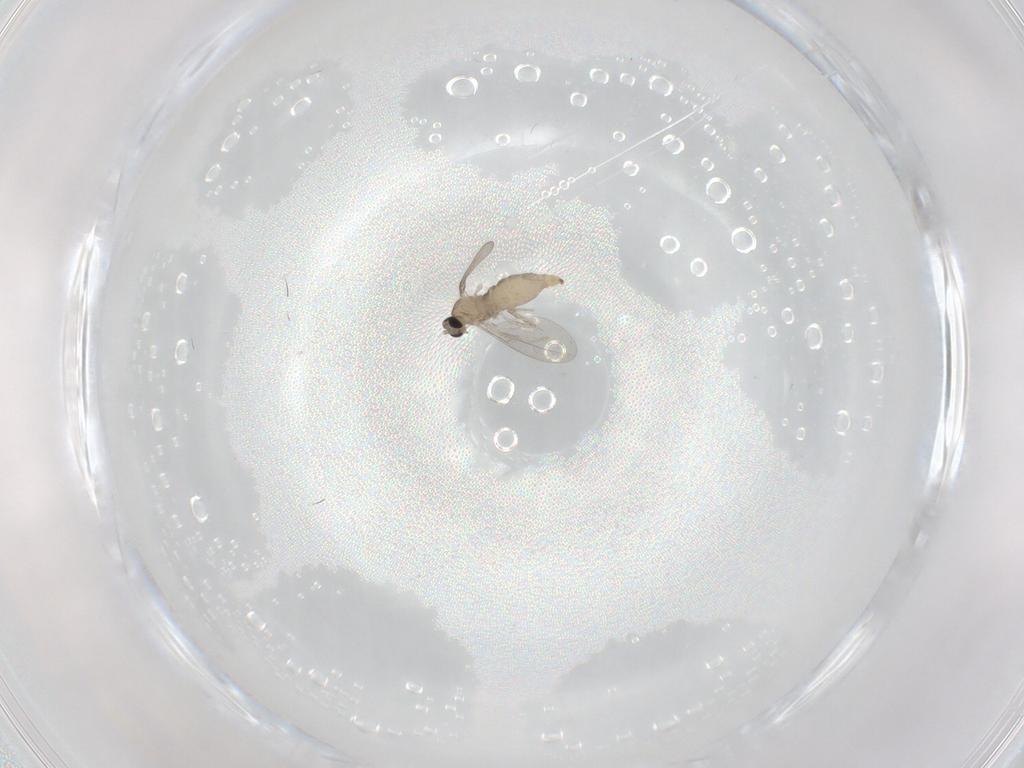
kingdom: Animalia
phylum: Arthropoda
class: Insecta
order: Diptera
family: Sciaridae
